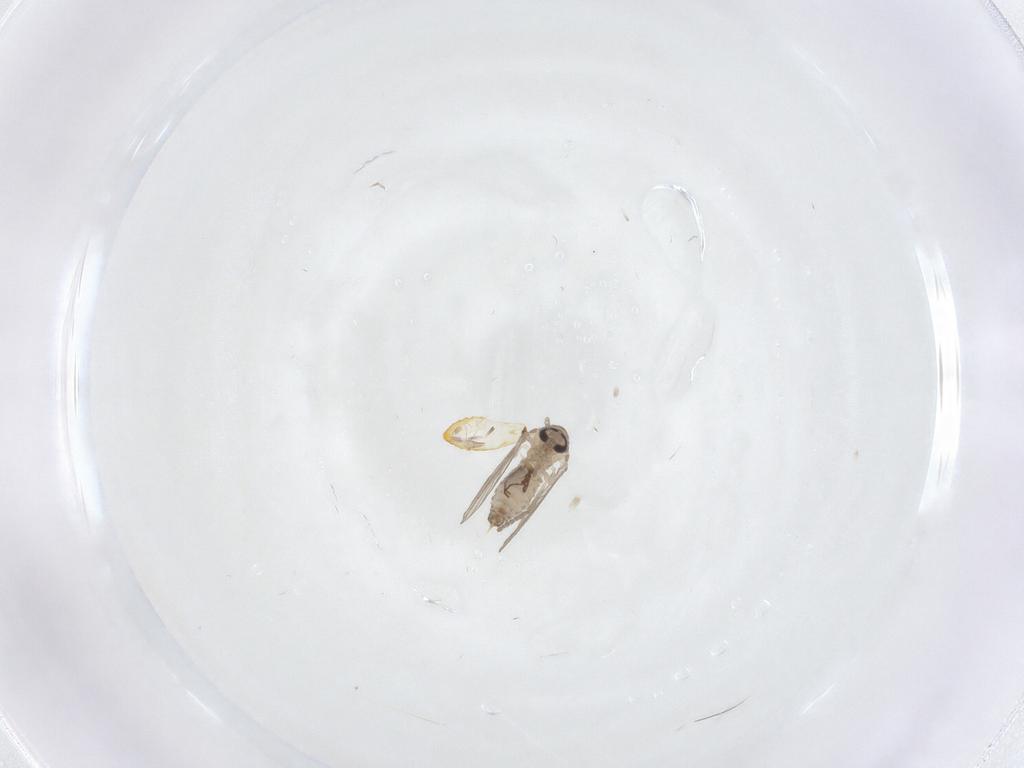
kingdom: Animalia
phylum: Arthropoda
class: Insecta
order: Diptera
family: Psychodidae
